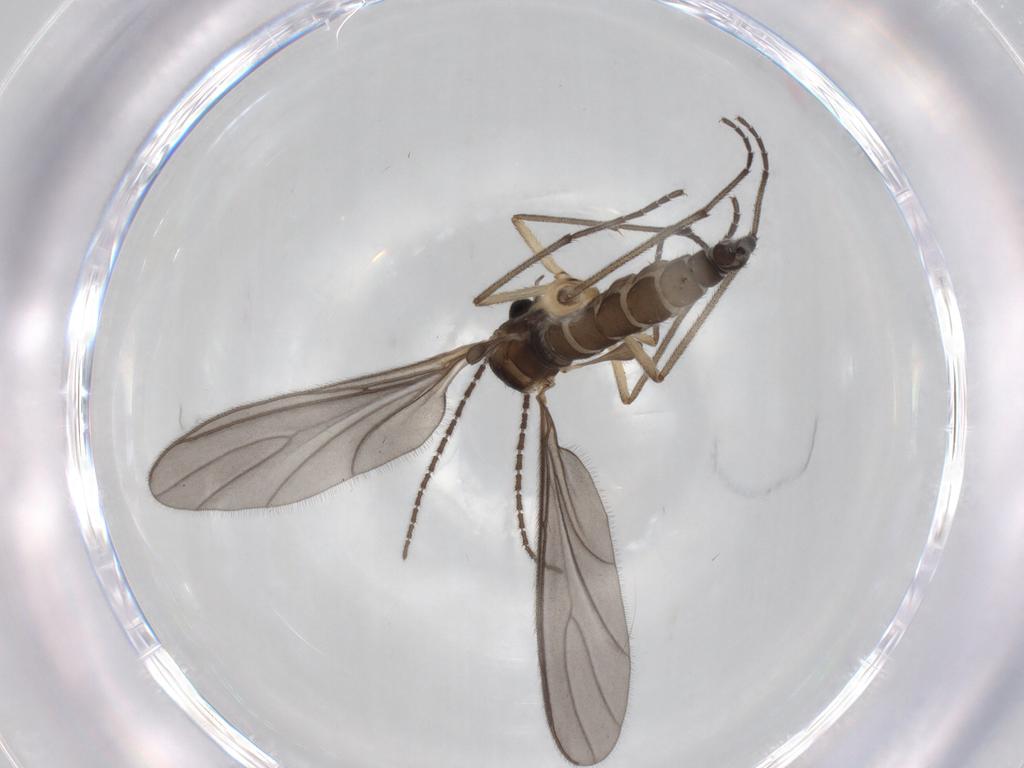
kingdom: Animalia
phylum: Arthropoda
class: Insecta
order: Diptera
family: Sciaridae
